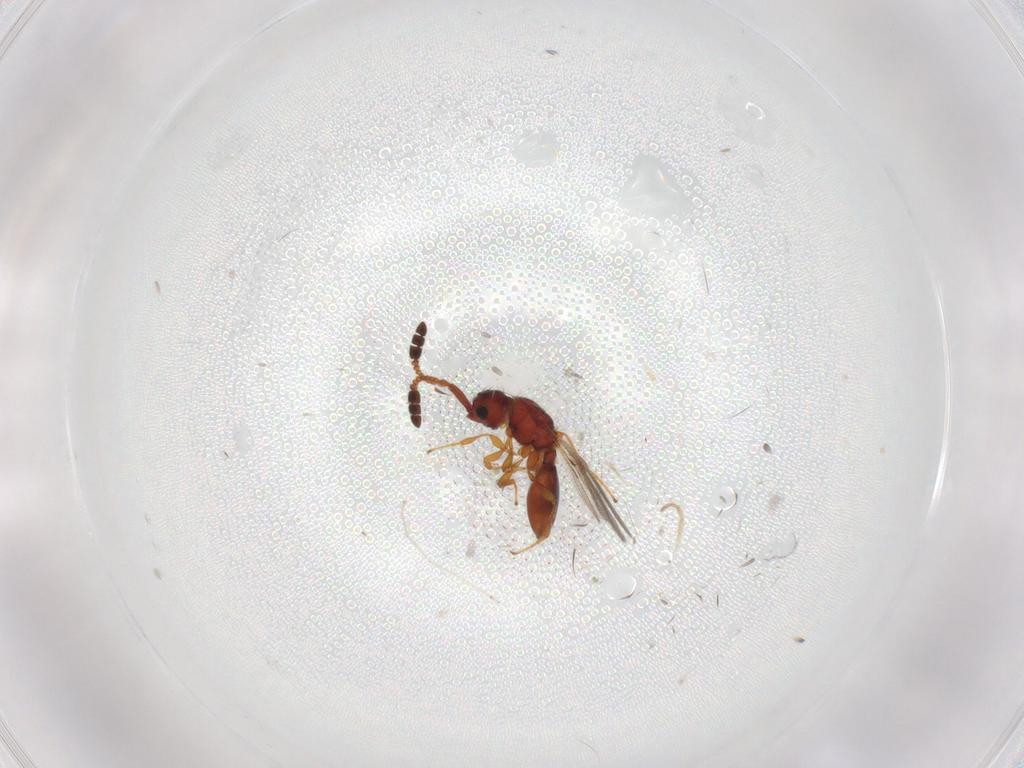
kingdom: Animalia
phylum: Arthropoda
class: Insecta
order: Hymenoptera
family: Diapriidae
